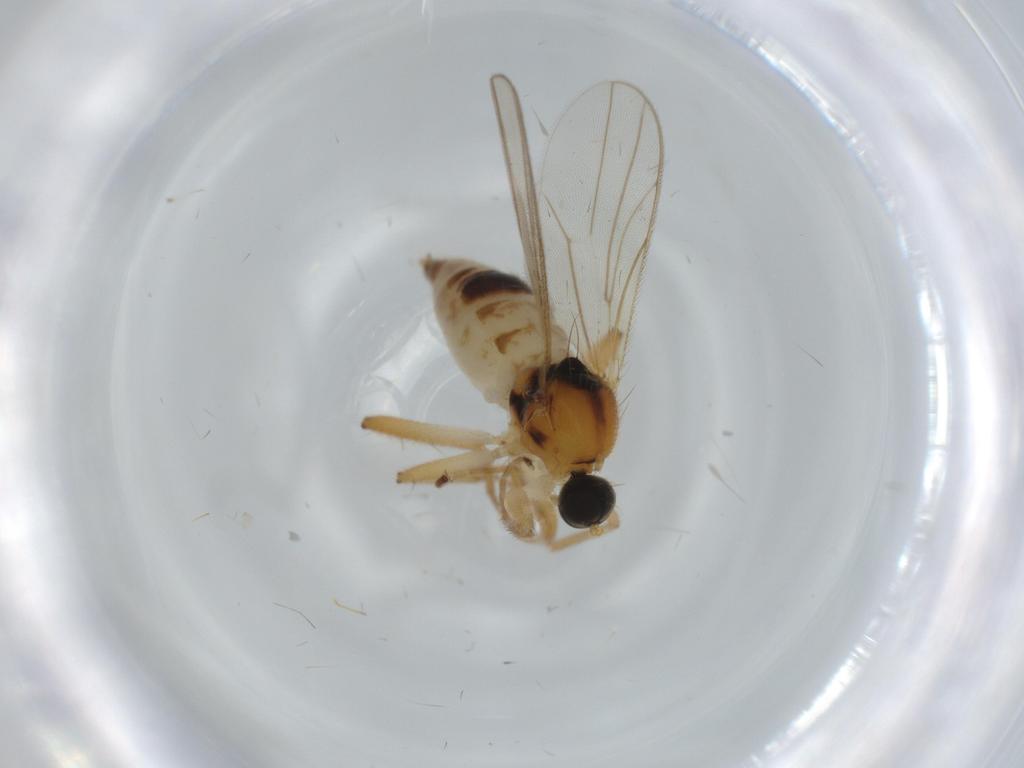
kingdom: Animalia
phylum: Arthropoda
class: Insecta
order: Diptera
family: Hybotidae
